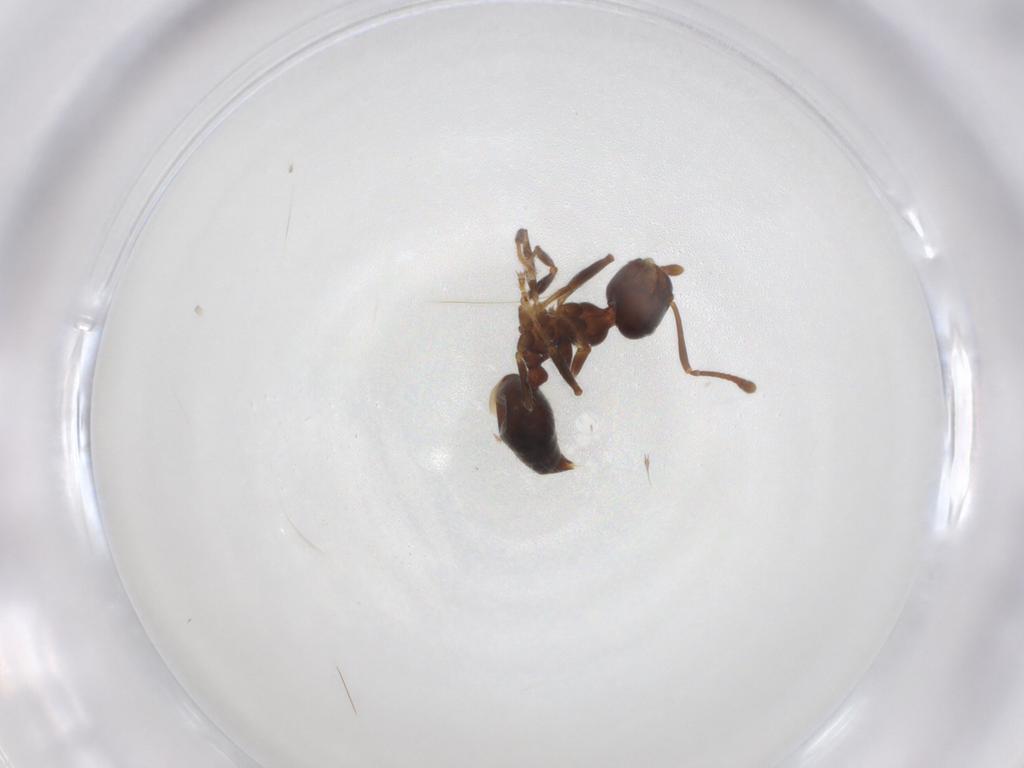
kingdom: Animalia
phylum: Arthropoda
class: Insecta
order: Hymenoptera
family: Formicidae
